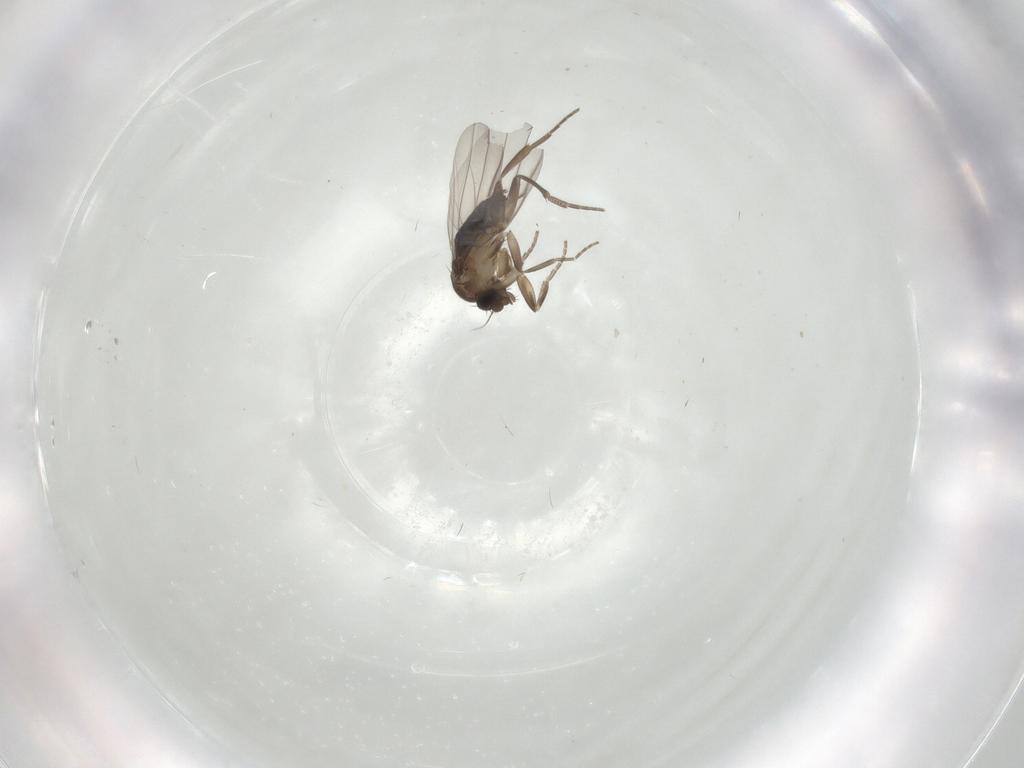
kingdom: Animalia
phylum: Arthropoda
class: Insecta
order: Diptera
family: Phoridae
